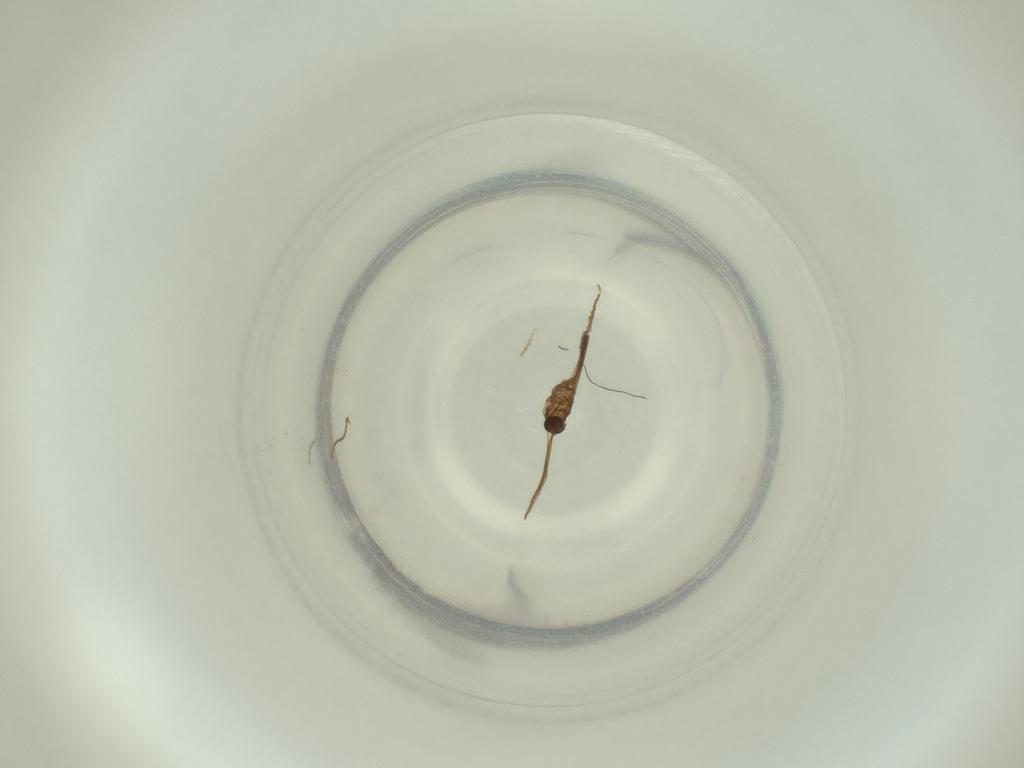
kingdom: Animalia
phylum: Arthropoda
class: Insecta
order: Diptera
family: Cecidomyiidae
